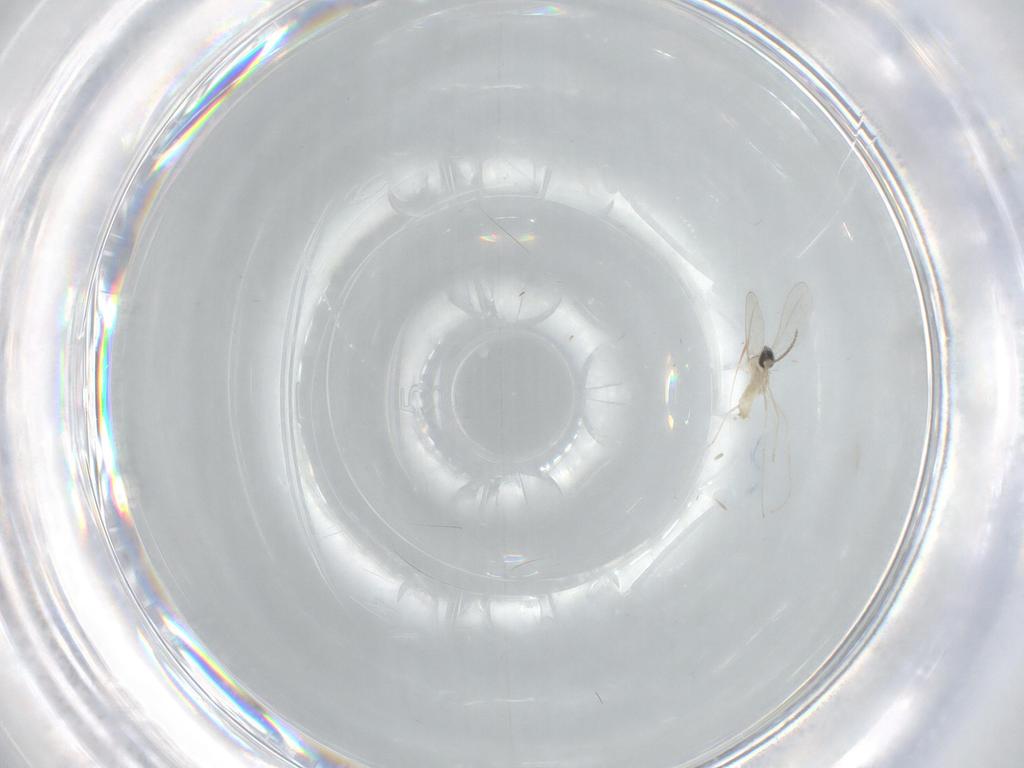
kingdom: Animalia
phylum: Arthropoda
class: Insecta
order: Diptera
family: Cecidomyiidae
